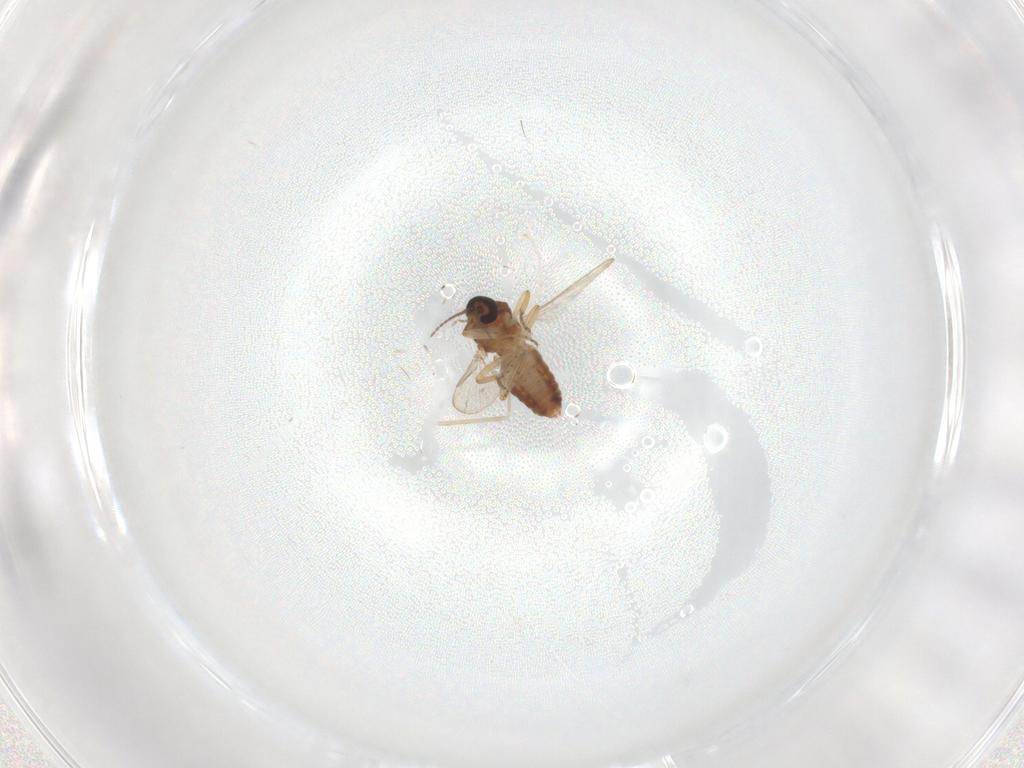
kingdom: Animalia
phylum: Arthropoda
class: Insecta
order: Diptera
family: Ceratopogonidae
